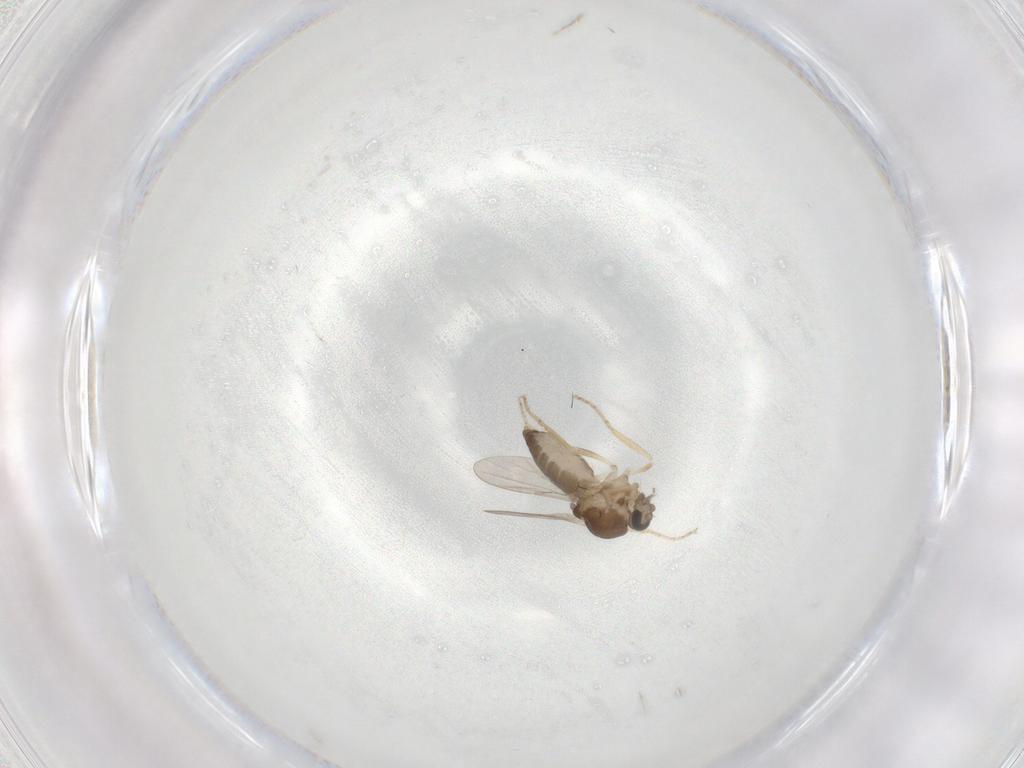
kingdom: Animalia
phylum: Arthropoda
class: Insecta
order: Diptera
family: Ceratopogonidae
